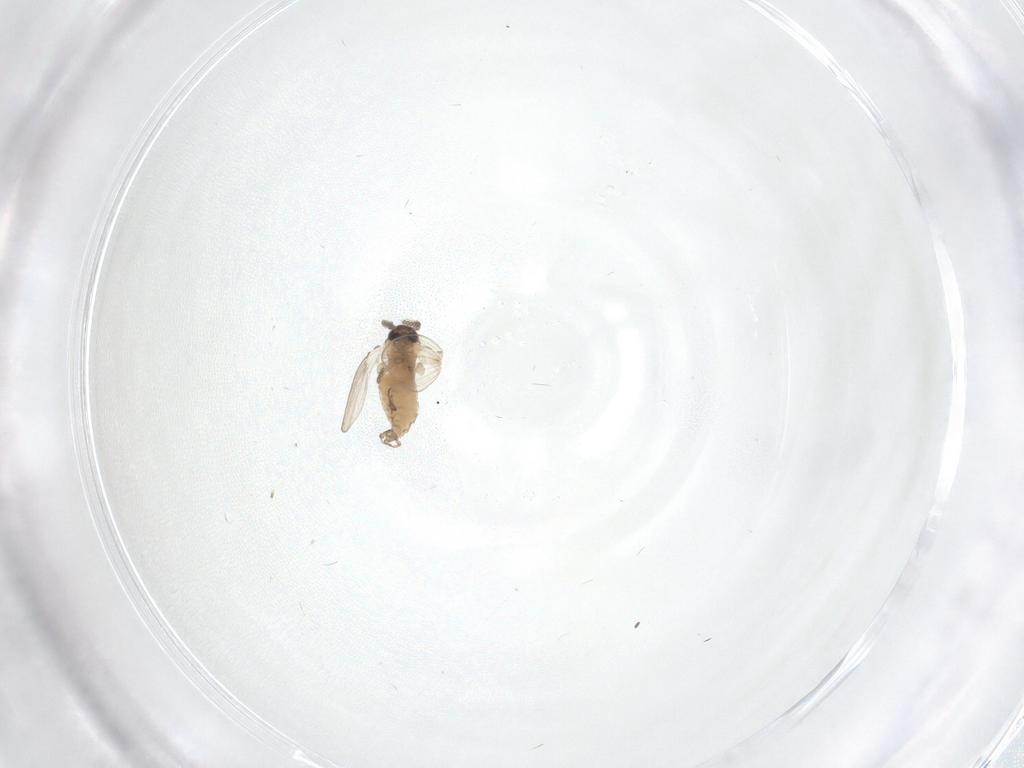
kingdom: Animalia
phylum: Arthropoda
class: Insecta
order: Diptera
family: Psychodidae
